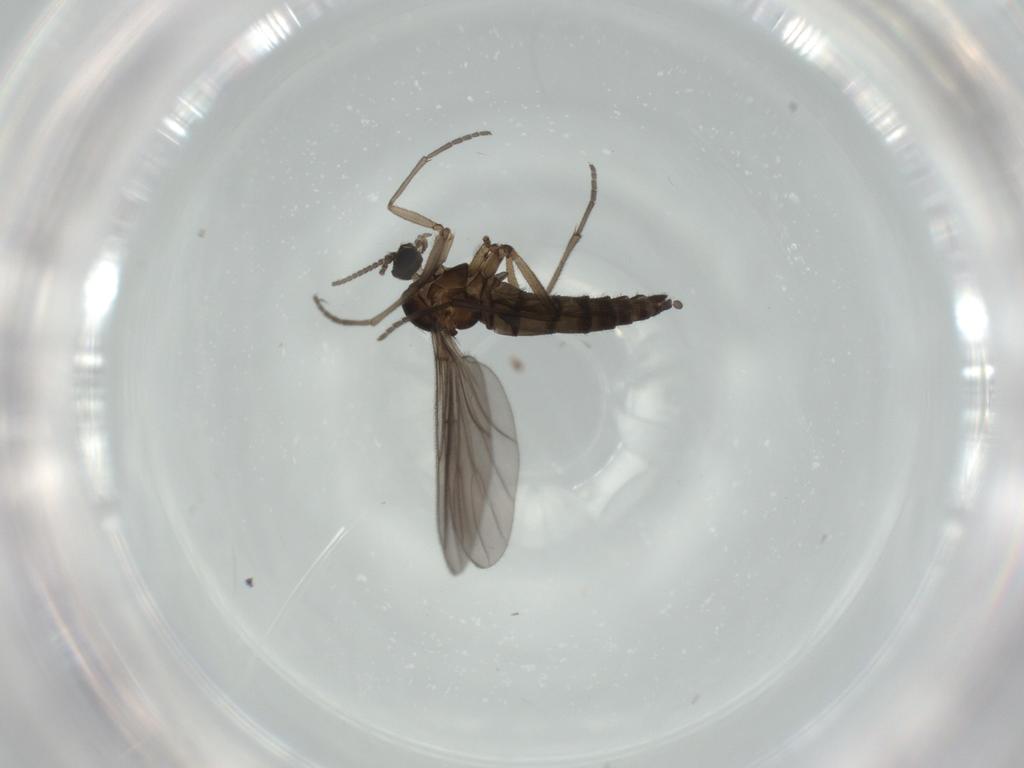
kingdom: Animalia
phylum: Arthropoda
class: Insecta
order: Diptera
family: Sciaridae
